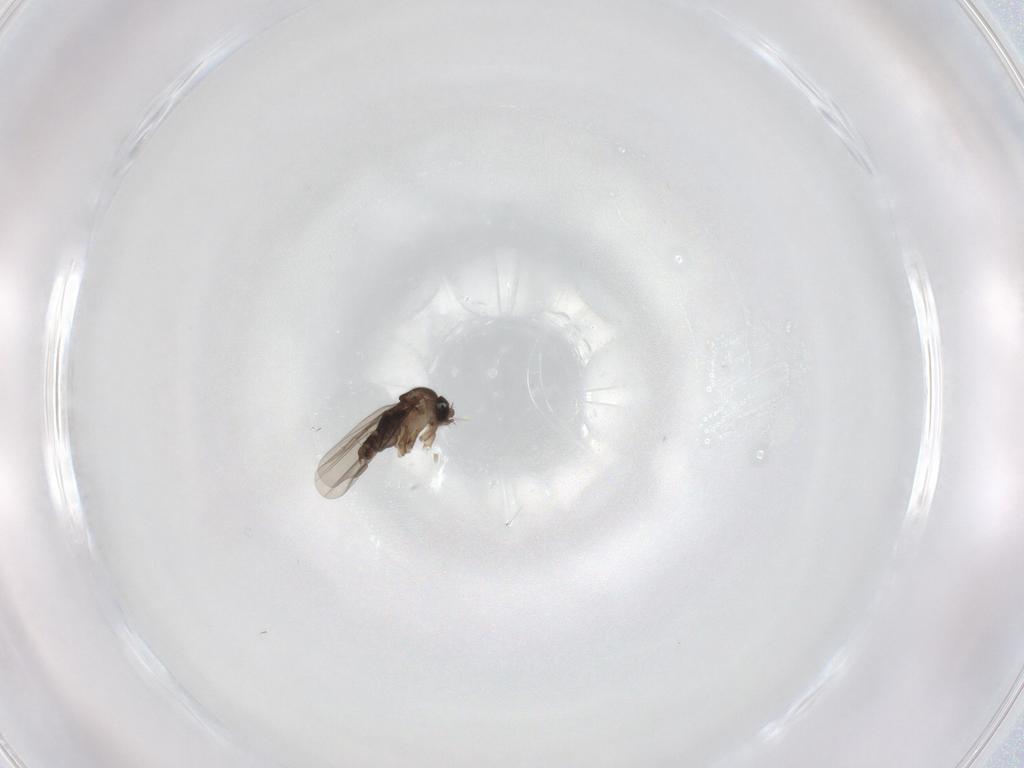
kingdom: Animalia
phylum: Arthropoda
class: Insecta
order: Diptera
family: Phoridae
